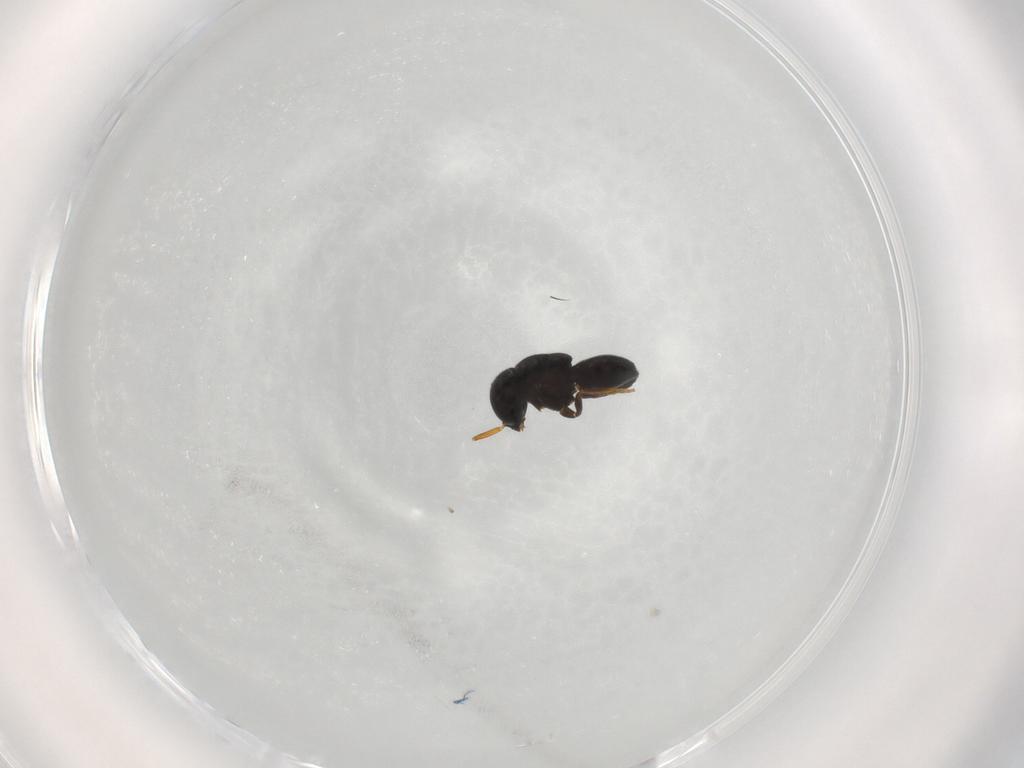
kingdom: Animalia
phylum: Arthropoda
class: Insecta
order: Hymenoptera
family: Scelionidae
